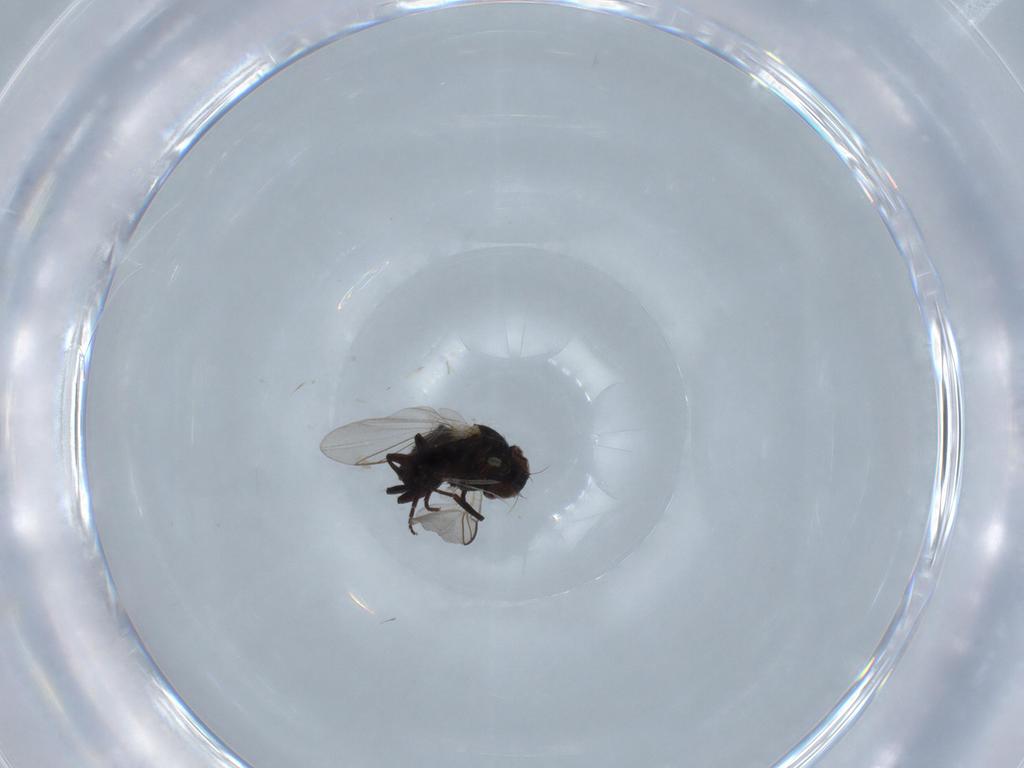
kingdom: Animalia
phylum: Arthropoda
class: Insecta
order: Diptera
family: Agromyzidae
